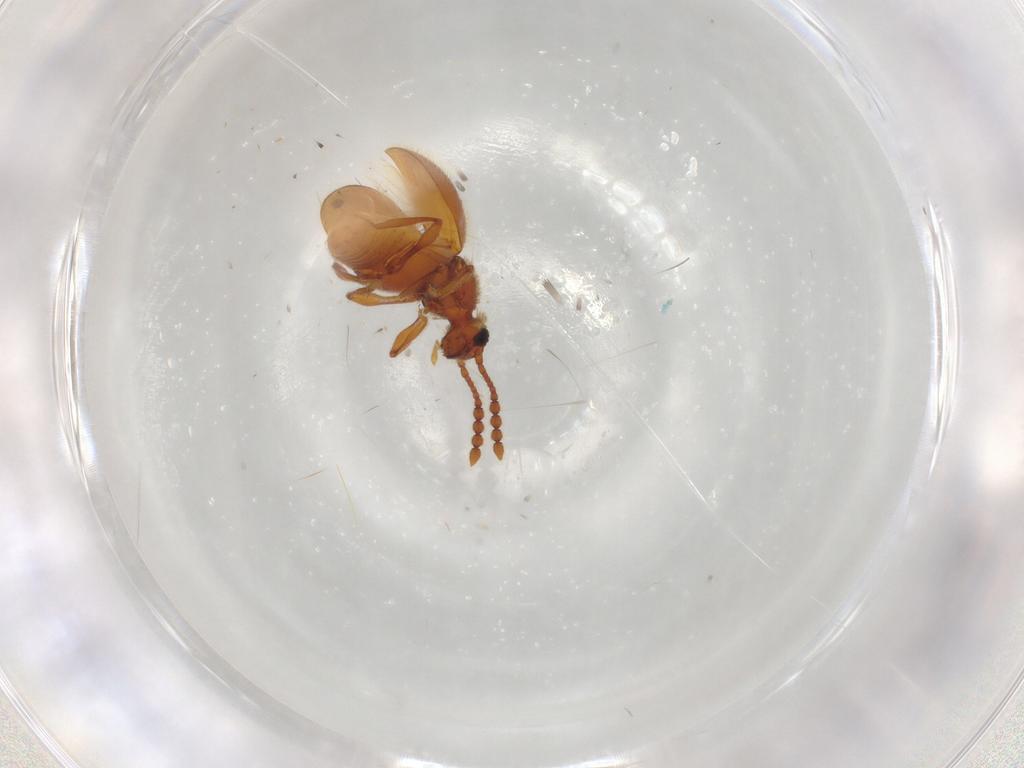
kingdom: Animalia
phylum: Arthropoda
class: Insecta
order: Coleoptera
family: Staphylinidae
